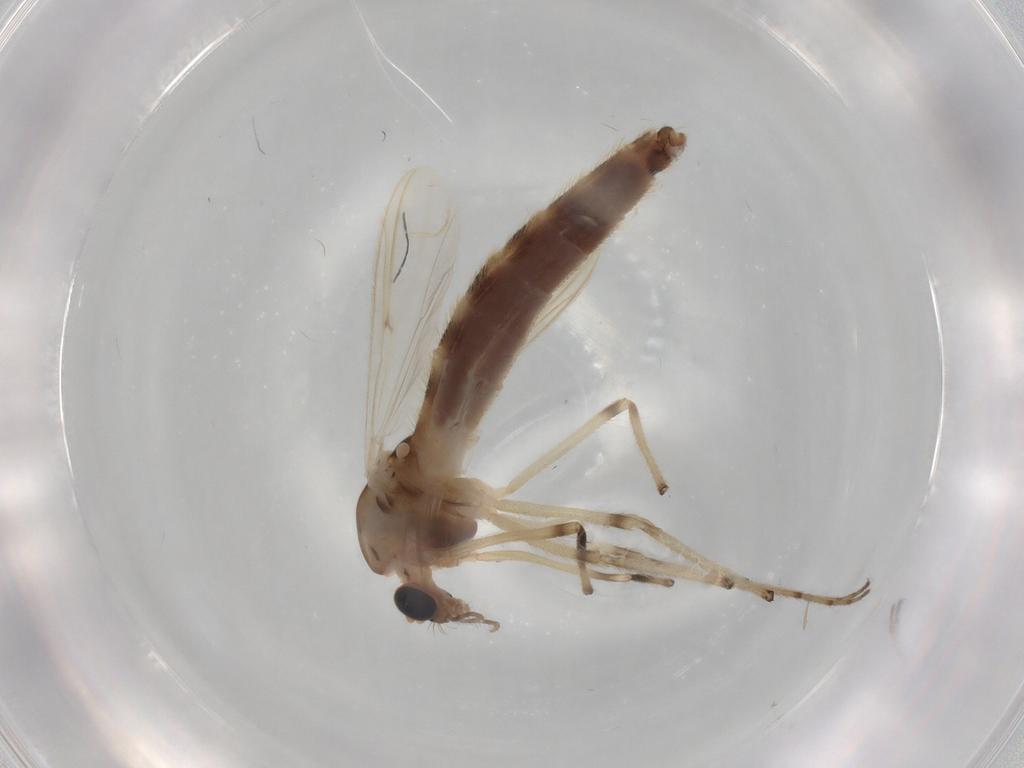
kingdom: Animalia
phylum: Arthropoda
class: Insecta
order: Diptera
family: Chironomidae
